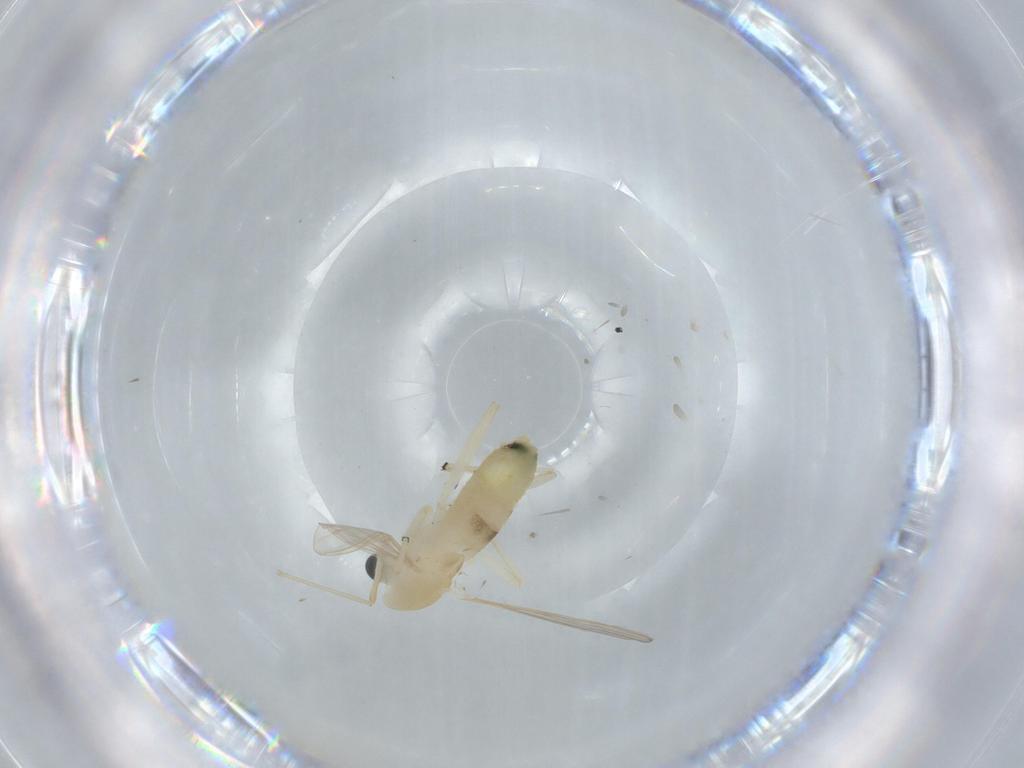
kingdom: Animalia
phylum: Arthropoda
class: Insecta
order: Diptera
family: Chironomidae
